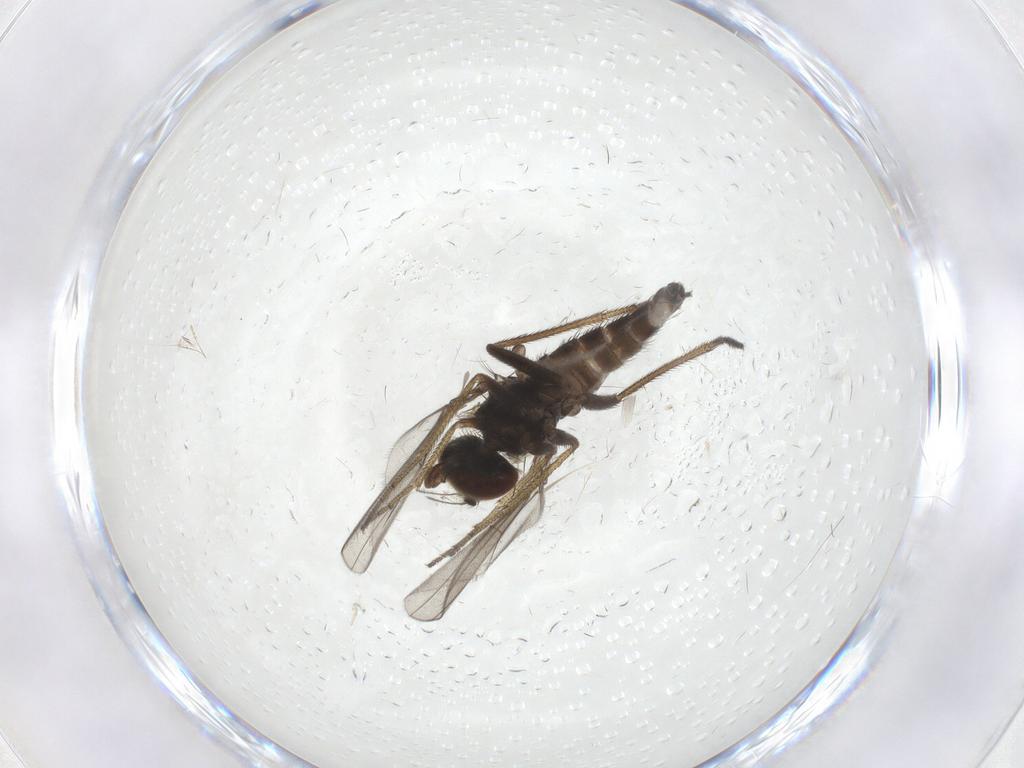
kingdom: Animalia
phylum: Arthropoda
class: Insecta
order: Diptera
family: Dolichopodidae
